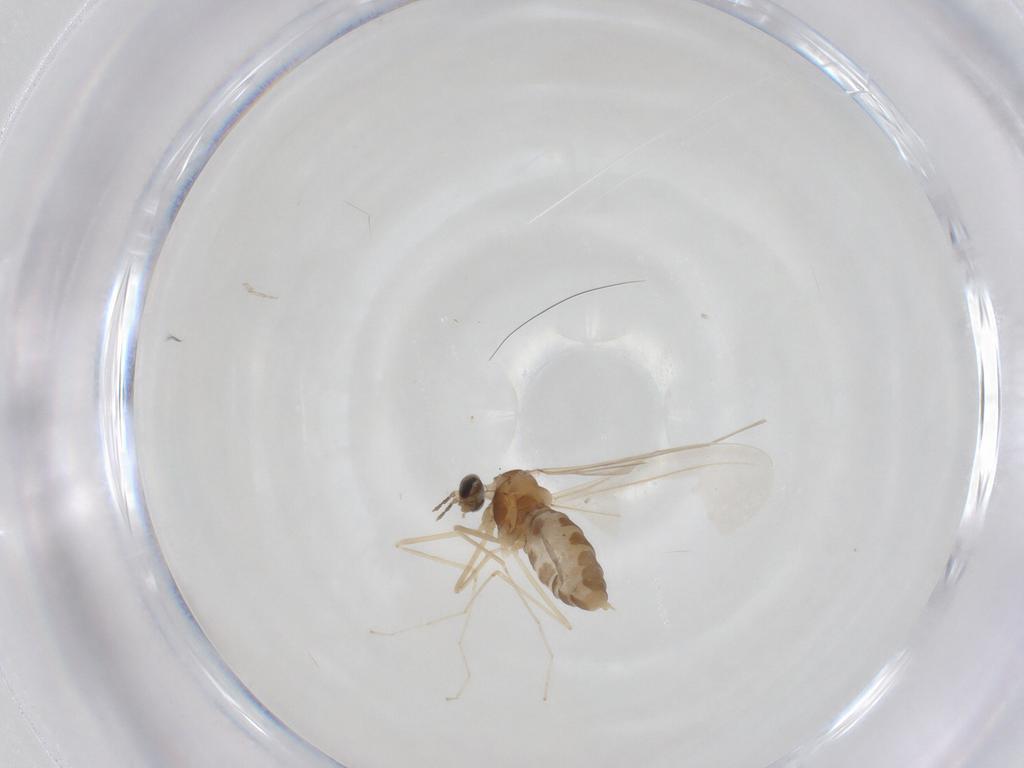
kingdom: Animalia
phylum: Arthropoda
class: Insecta
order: Diptera
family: Cecidomyiidae
